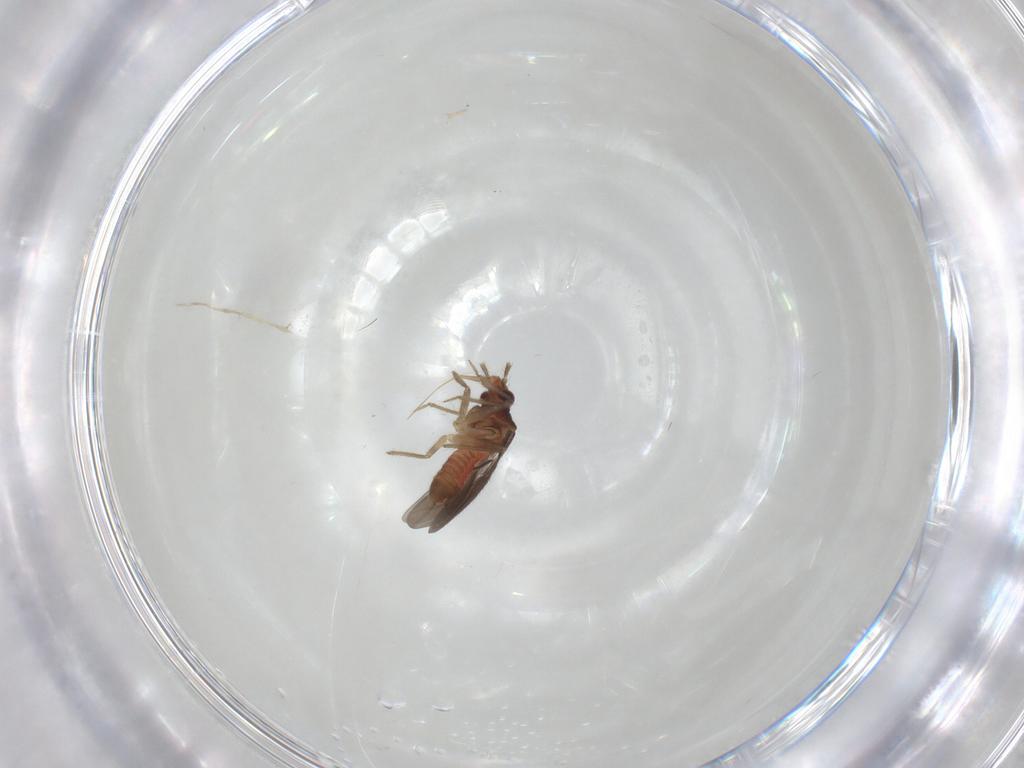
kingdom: Animalia
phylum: Arthropoda
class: Insecta
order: Hemiptera
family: Ceratocombidae
